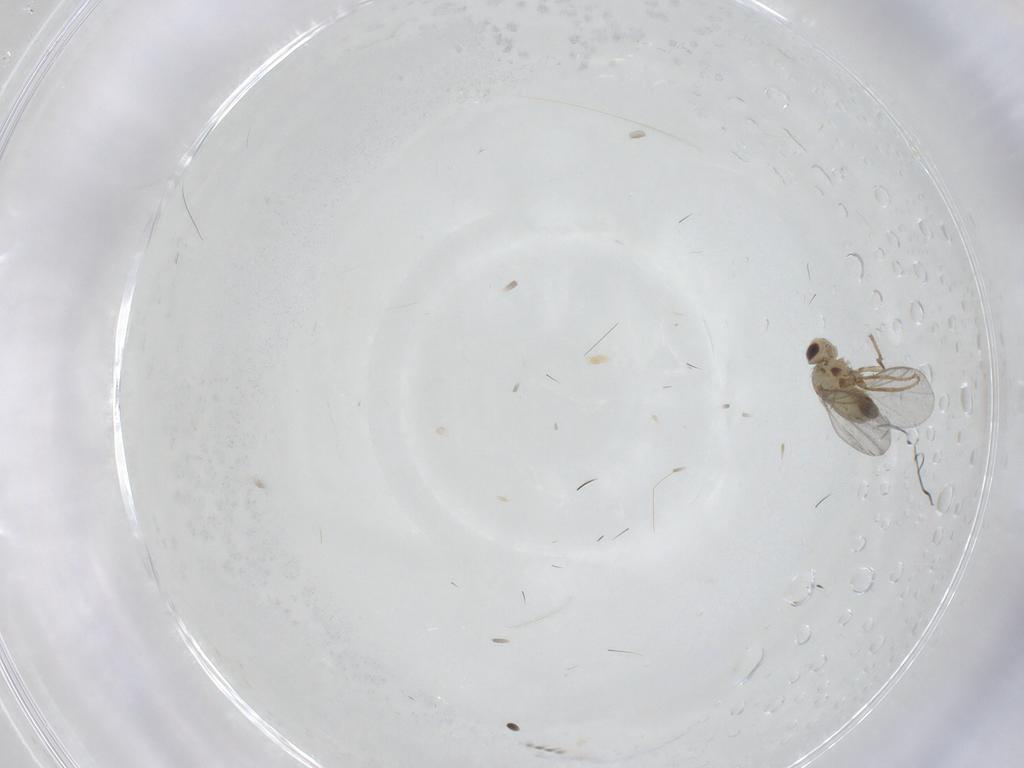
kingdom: Animalia
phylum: Arthropoda
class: Insecta
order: Diptera
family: Agromyzidae
